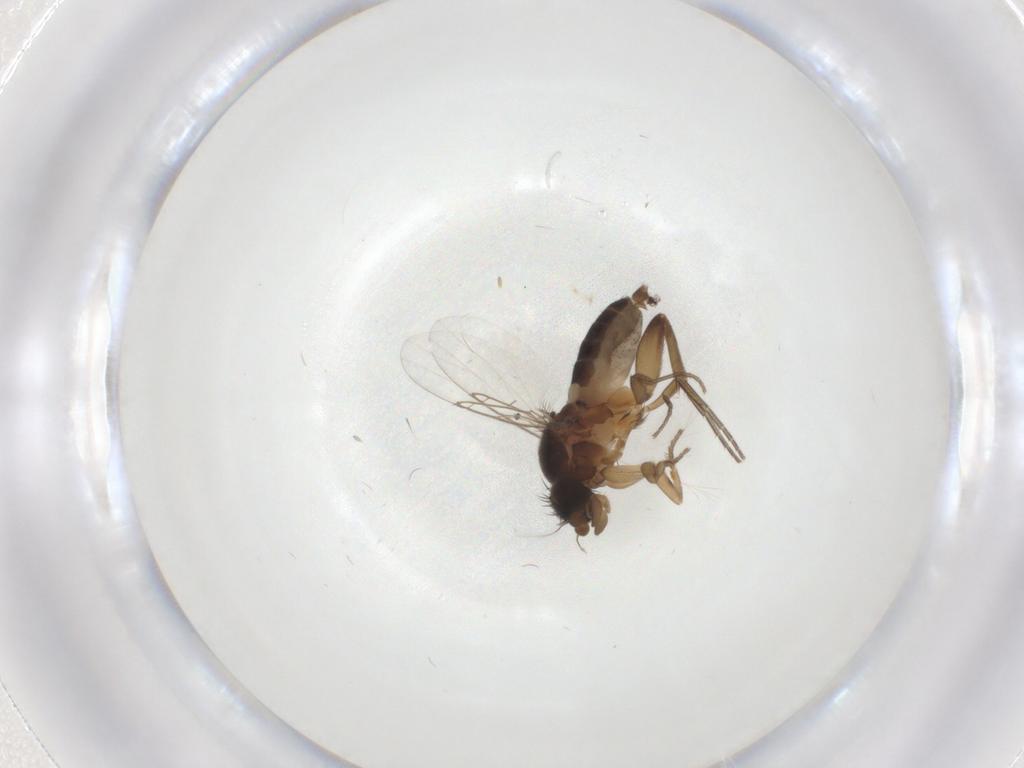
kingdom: Animalia
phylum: Arthropoda
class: Insecta
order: Diptera
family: Phoridae
